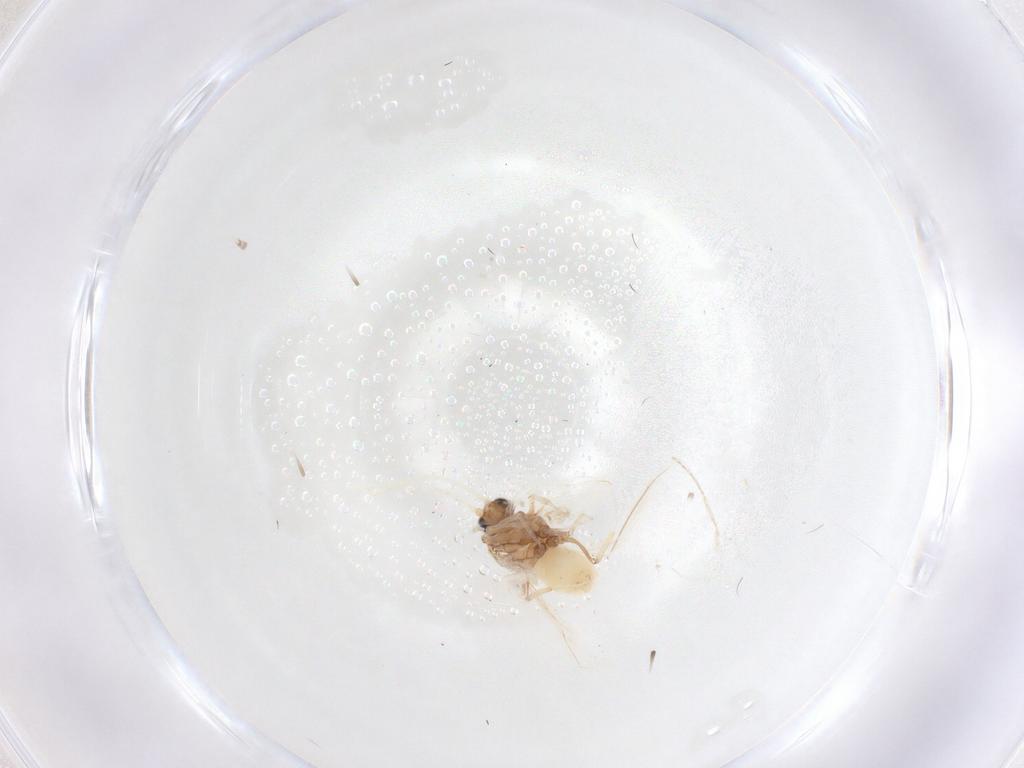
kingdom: Animalia
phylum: Arthropoda
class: Insecta
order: Neuroptera
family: Coniopterygidae
